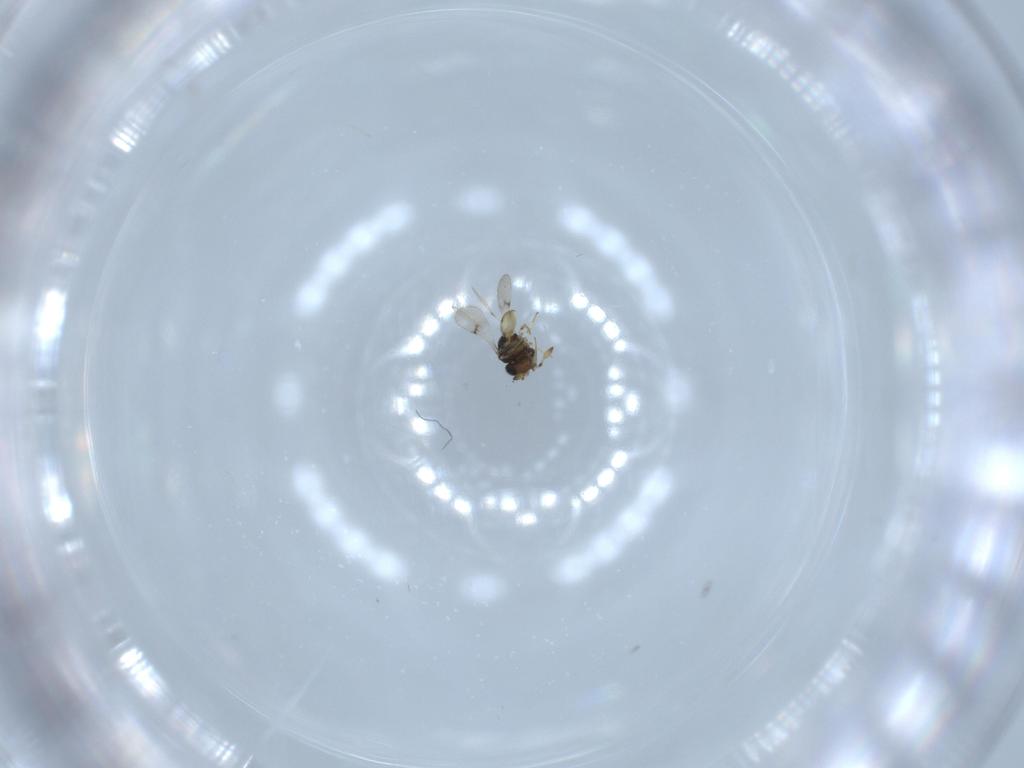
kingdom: Animalia
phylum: Arthropoda
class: Insecta
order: Hymenoptera
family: Scelionidae
